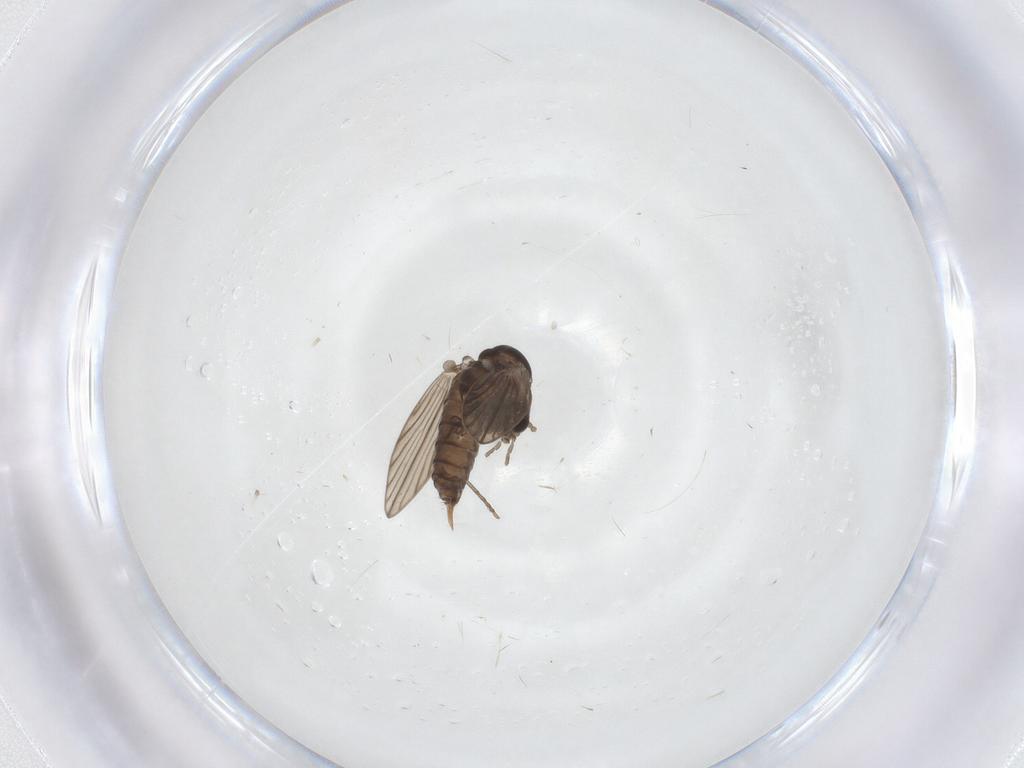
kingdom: Animalia
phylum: Arthropoda
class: Insecta
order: Diptera
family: Psychodidae
